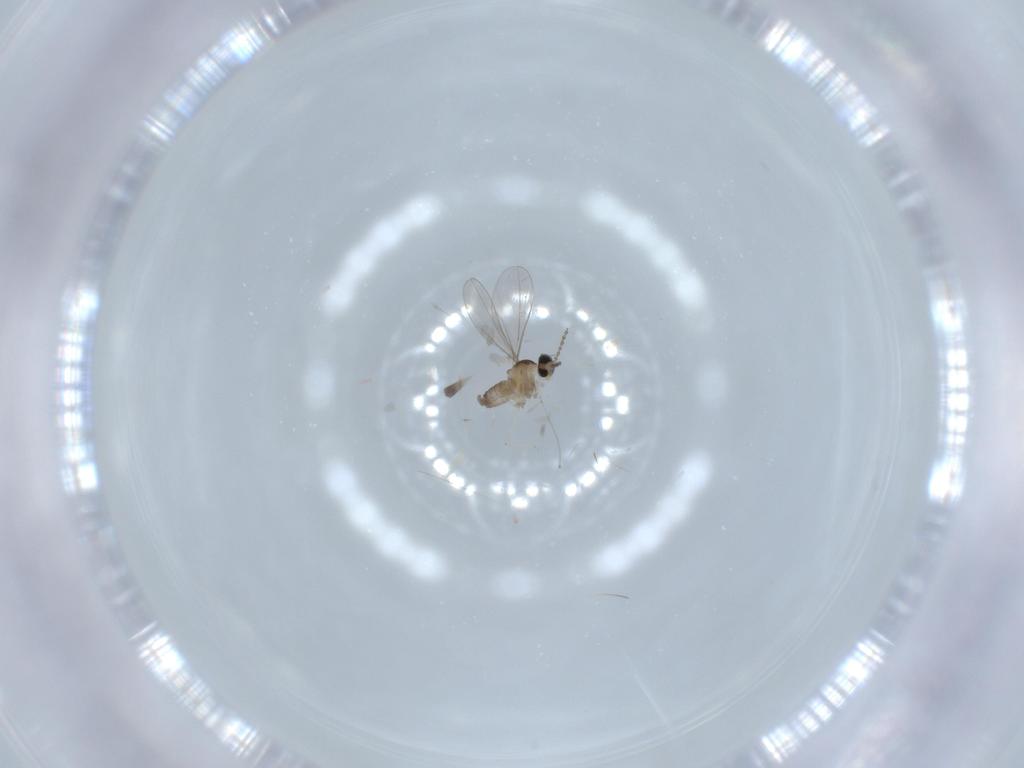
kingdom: Animalia
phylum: Arthropoda
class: Insecta
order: Diptera
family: Cecidomyiidae
